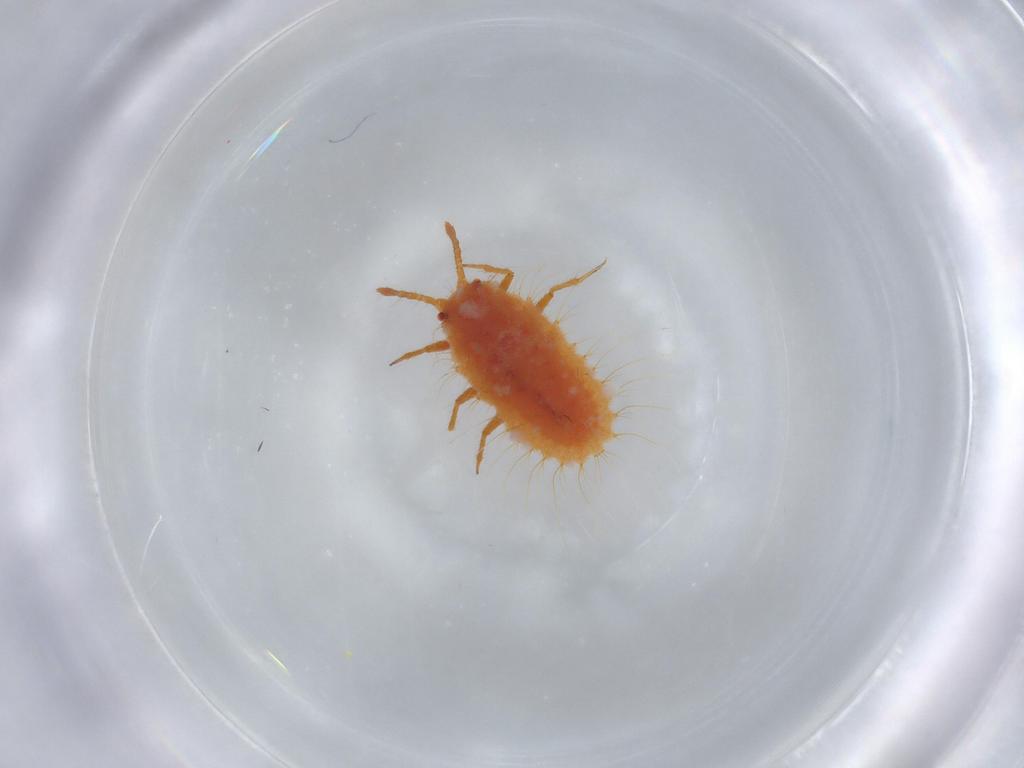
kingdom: Animalia
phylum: Arthropoda
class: Insecta
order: Hemiptera
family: Coccoidea_incertae_sedis
